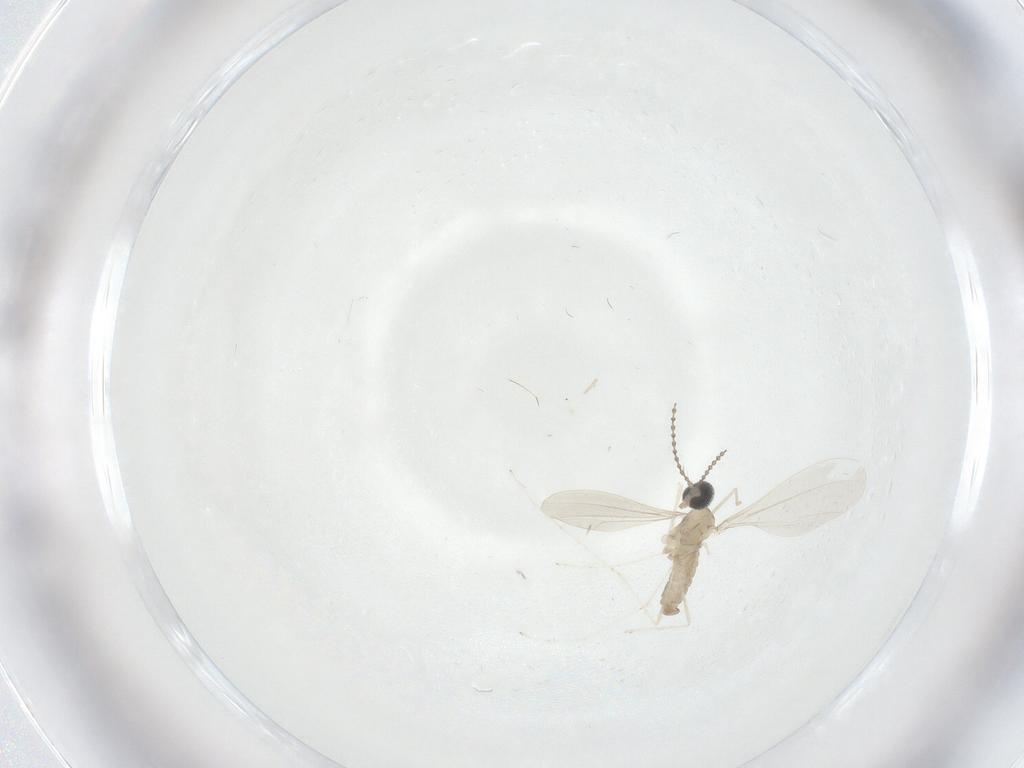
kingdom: Animalia
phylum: Arthropoda
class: Insecta
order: Diptera
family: Cecidomyiidae
